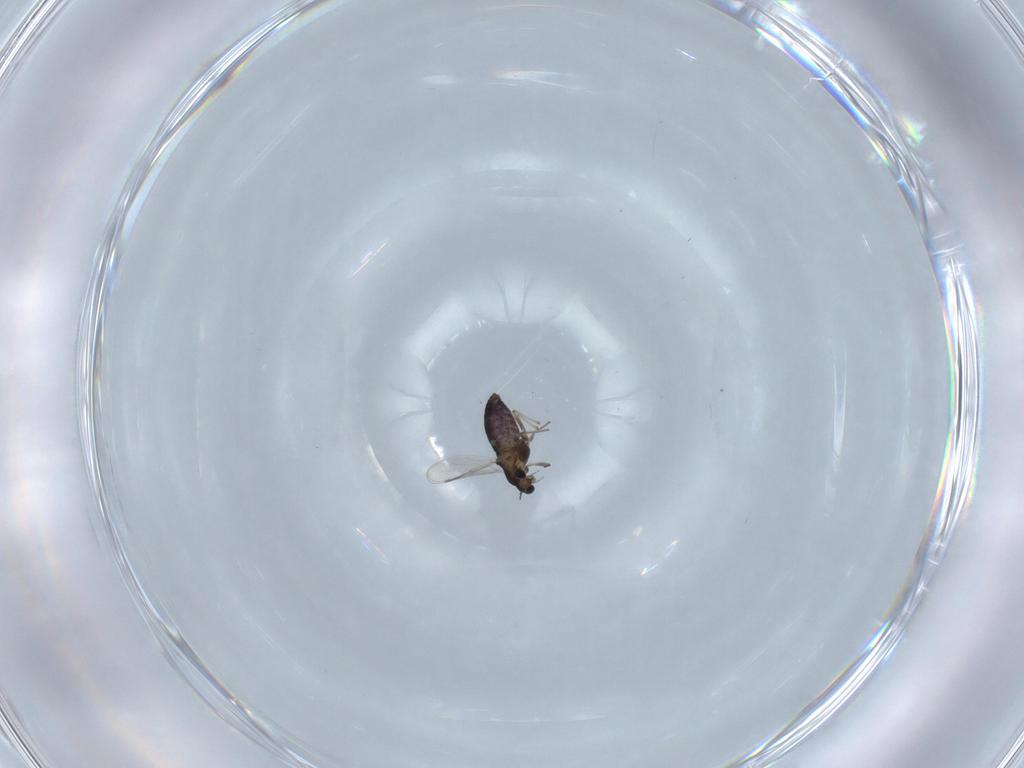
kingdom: Animalia
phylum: Arthropoda
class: Insecta
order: Diptera
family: Chironomidae
